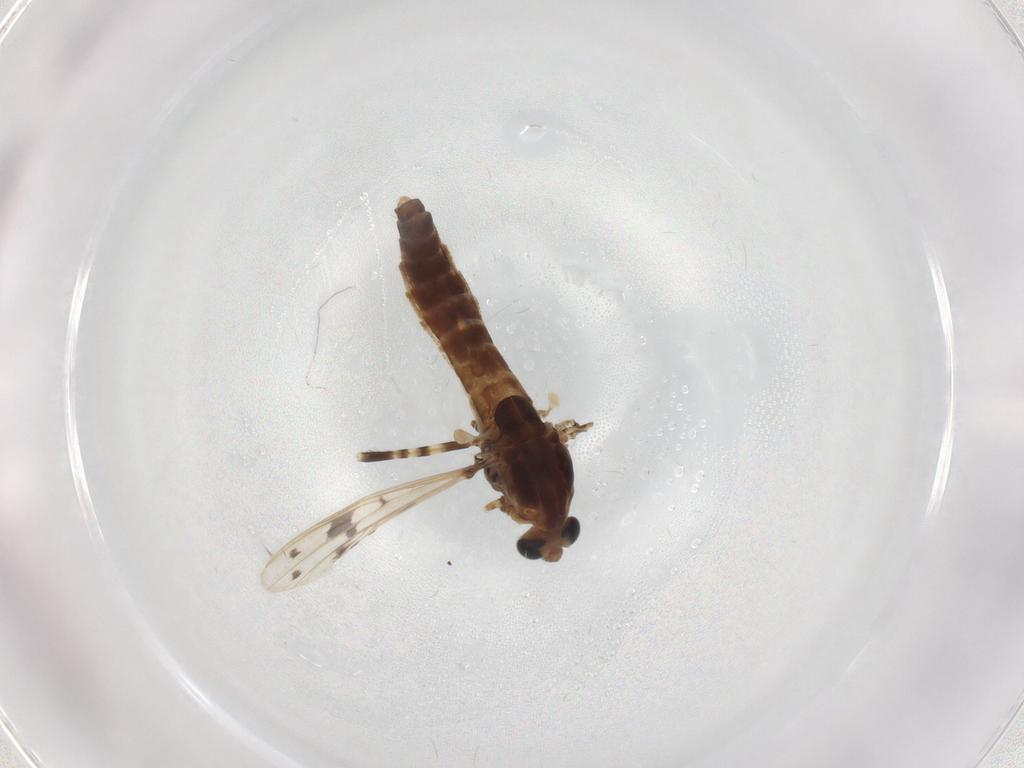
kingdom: Animalia
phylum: Arthropoda
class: Insecta
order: Diptera
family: Chironomidae
